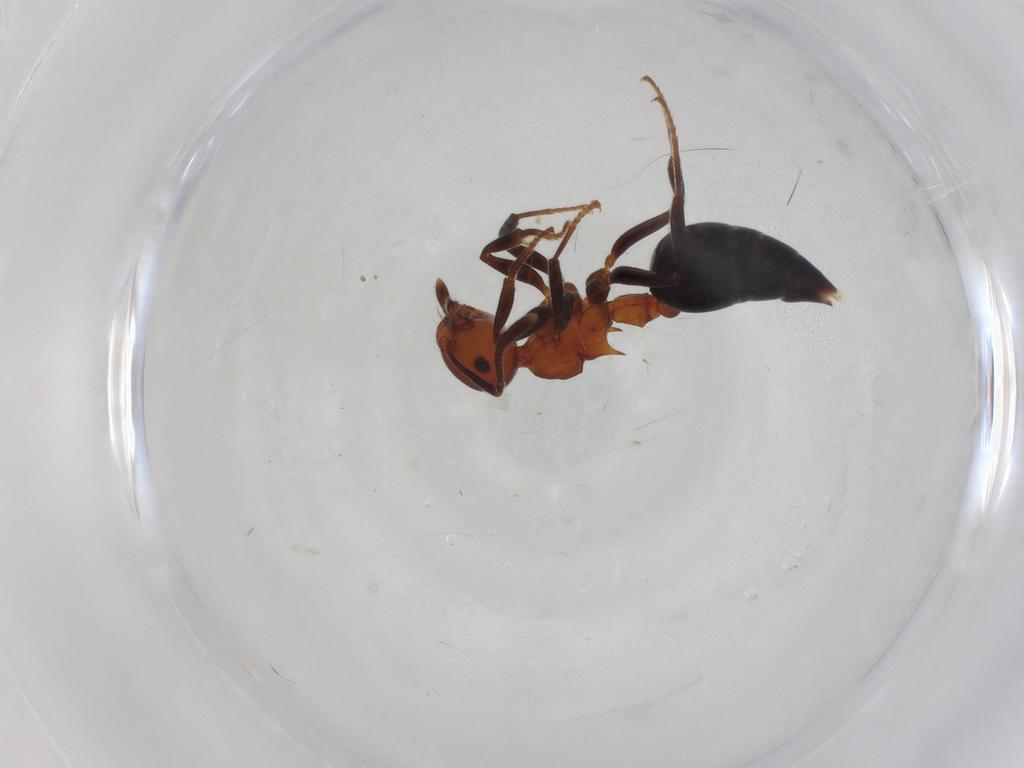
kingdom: Animalia
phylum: Arthropoda
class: Insecta
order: Hymenoptera
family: Formicidae
